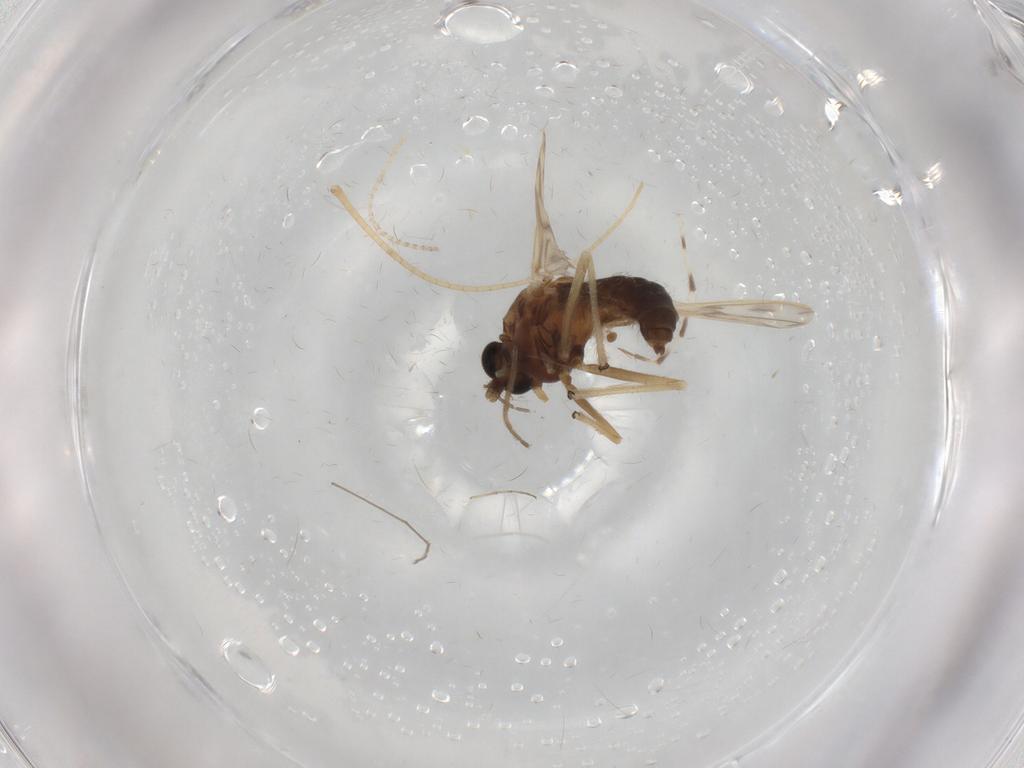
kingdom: Animalia
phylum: Arthropoda
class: Insecta
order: Diptera
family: Chironomidae
